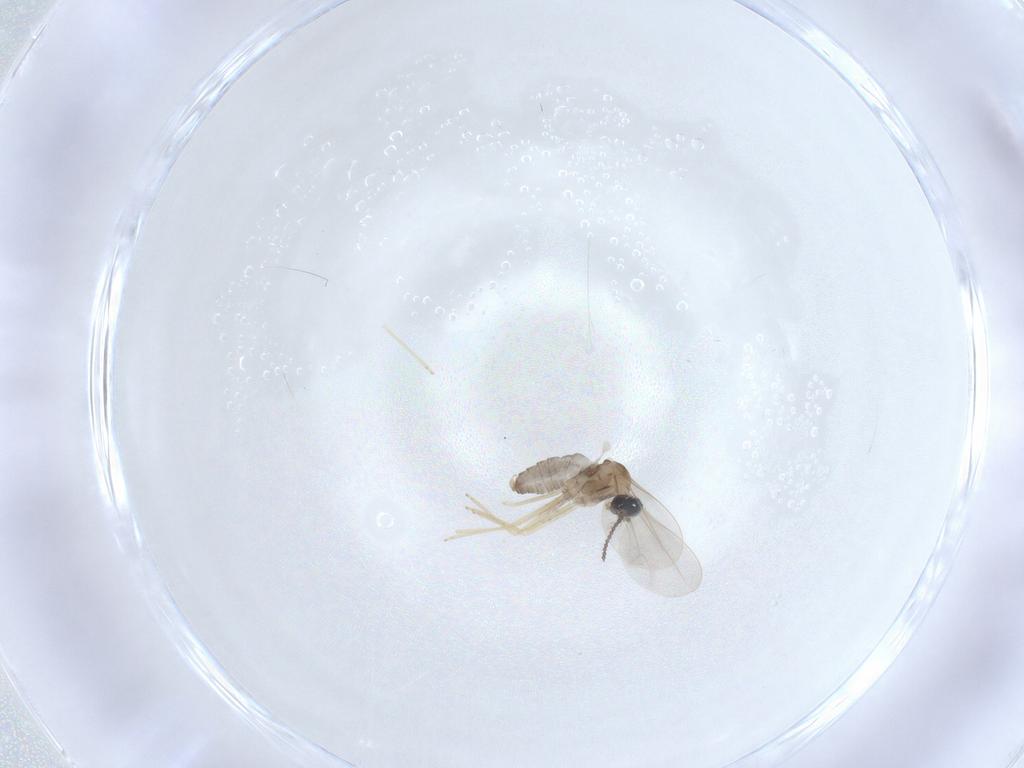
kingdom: Animalia
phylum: Arthropoda
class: Insecta
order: Diptera
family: Cecidomyiidae
